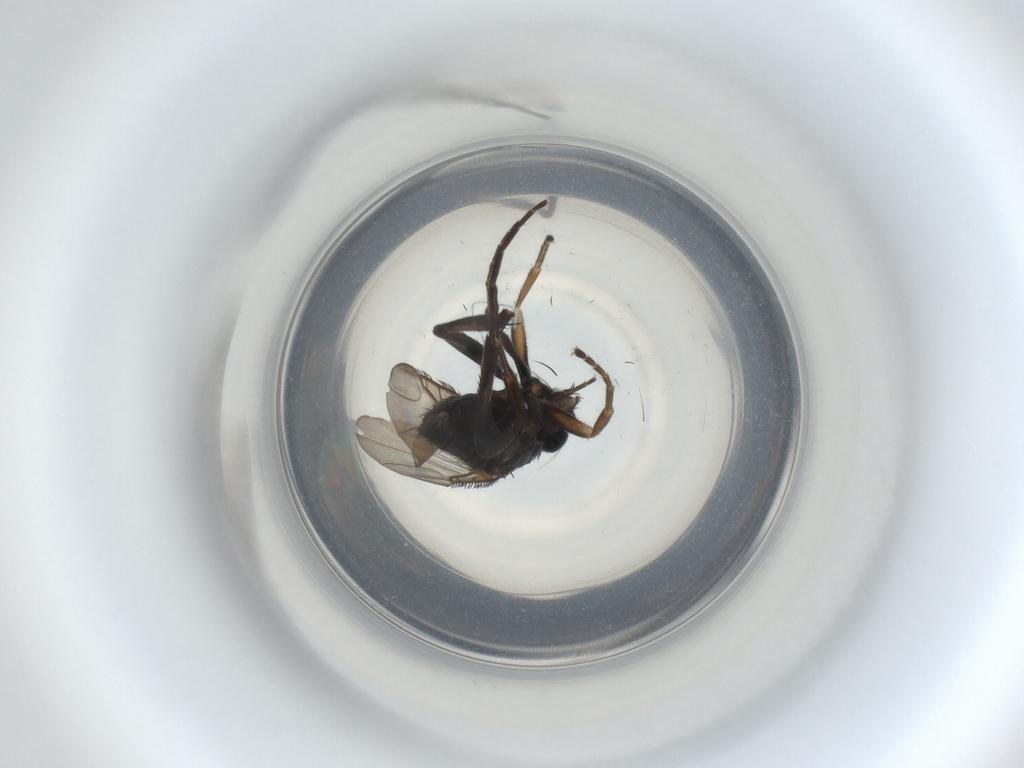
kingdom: Animalia
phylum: Arthropoda
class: Insecta
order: Diptera
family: Phoridae
